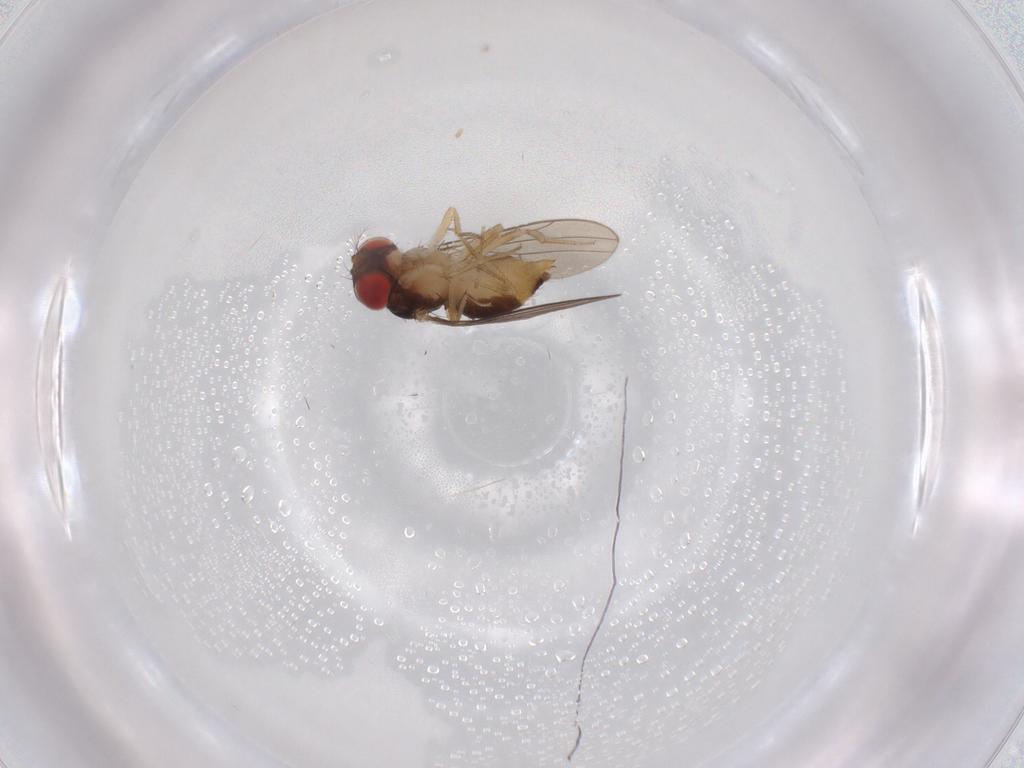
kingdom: Animalia
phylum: Arthropoda
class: Insecta
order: Diptera
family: Drosophilidae
